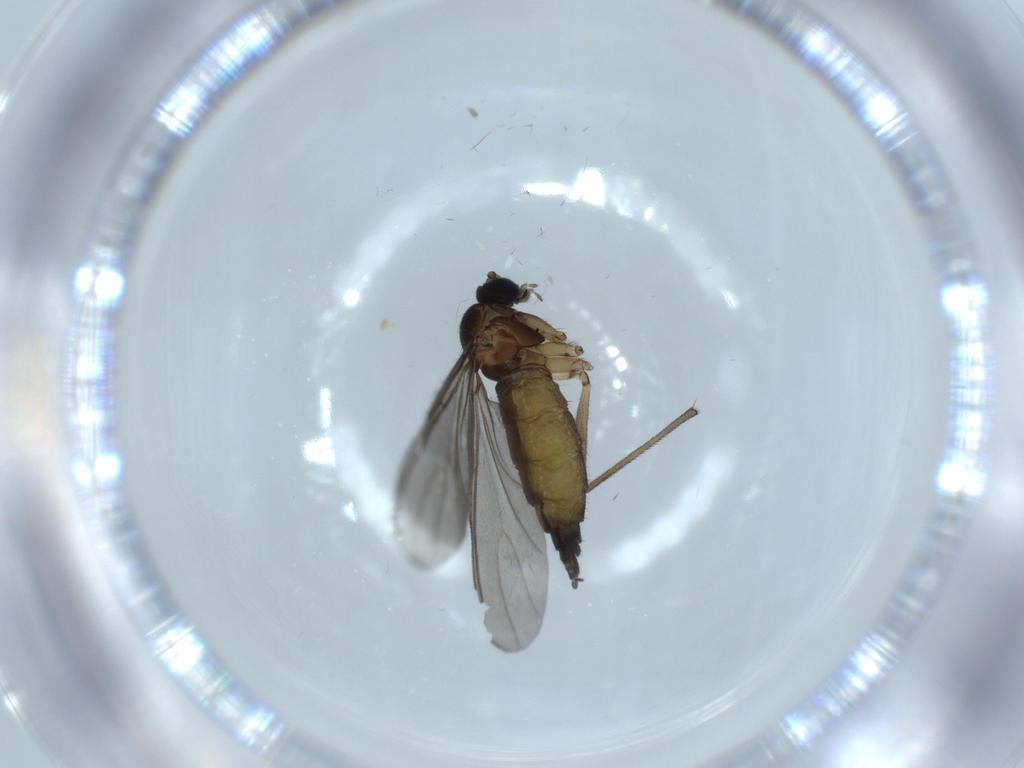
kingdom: Animalia
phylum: Arthropoda
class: Insecta
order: Diptera
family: Sciaridae
